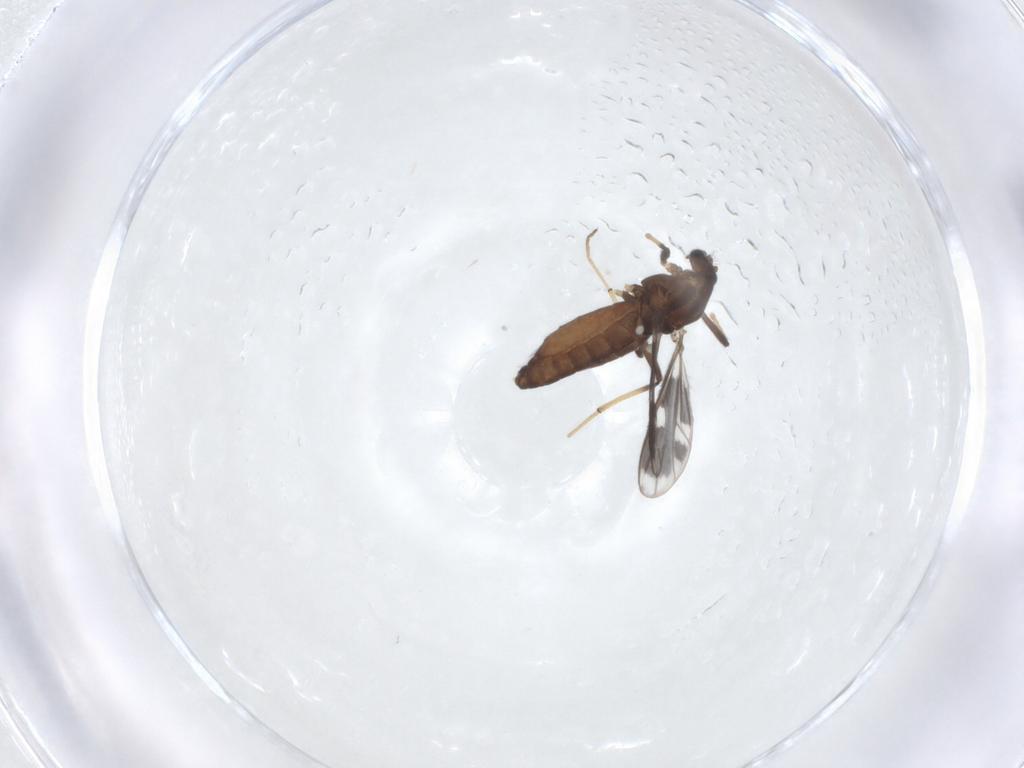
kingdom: Animalia
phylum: Arthropoda
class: Insecta
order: Diptera
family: Chironomidae
